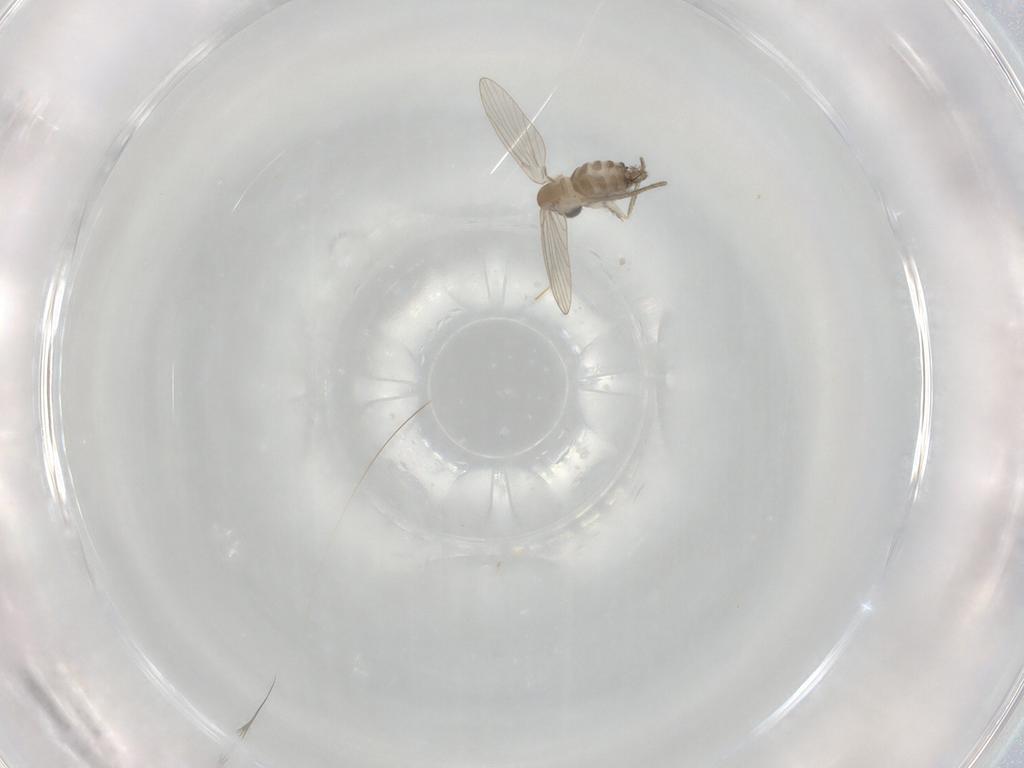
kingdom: Animalia
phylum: Arthropoda
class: Insecta
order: Diptera
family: Psychodidae
